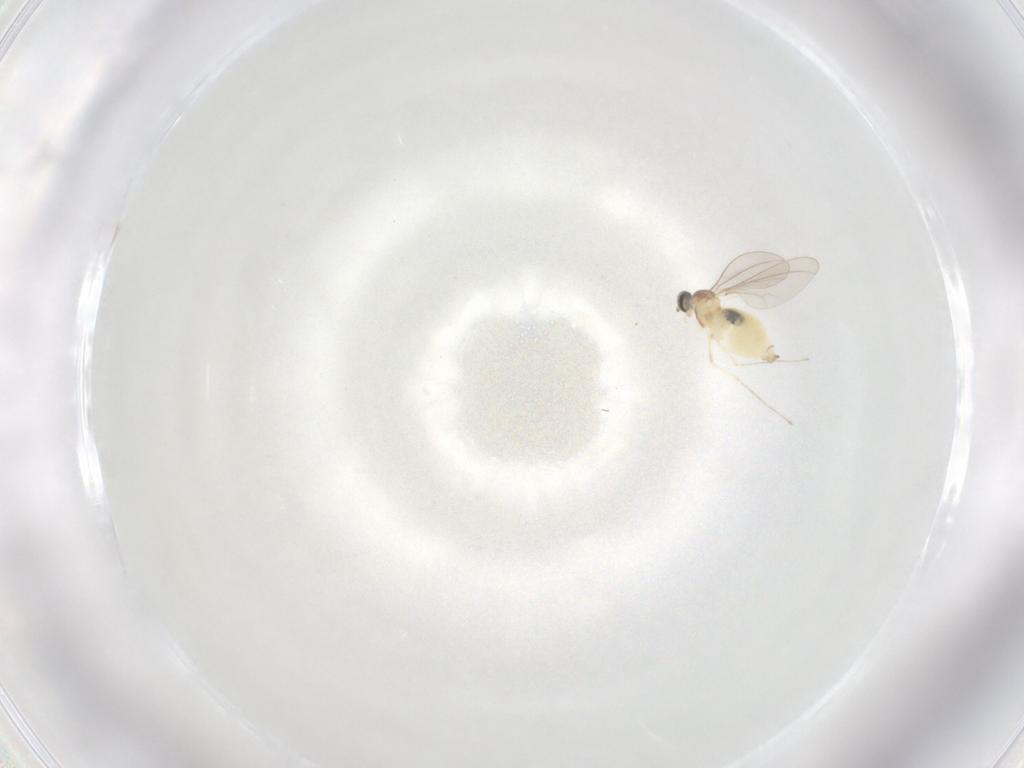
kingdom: Animalia
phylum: Arthropoda
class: Insecta
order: Diptera
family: Cecidomyiidae
